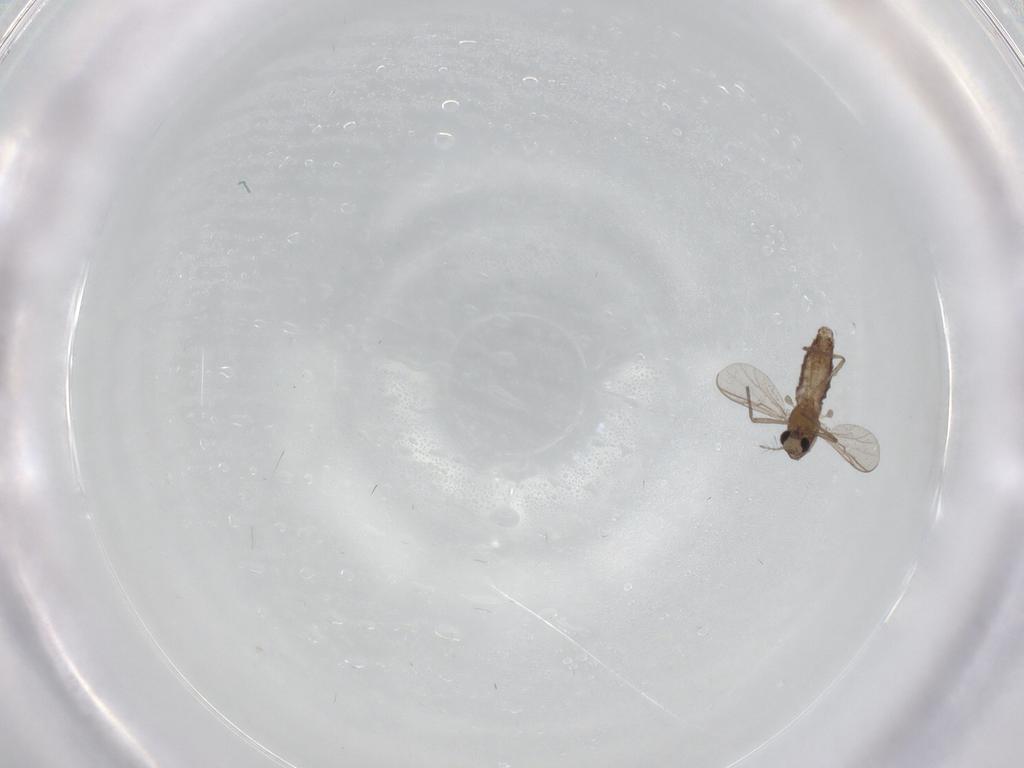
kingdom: Animalia
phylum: Arthropoda
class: Insecta
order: Diptera
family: Chironomidae
